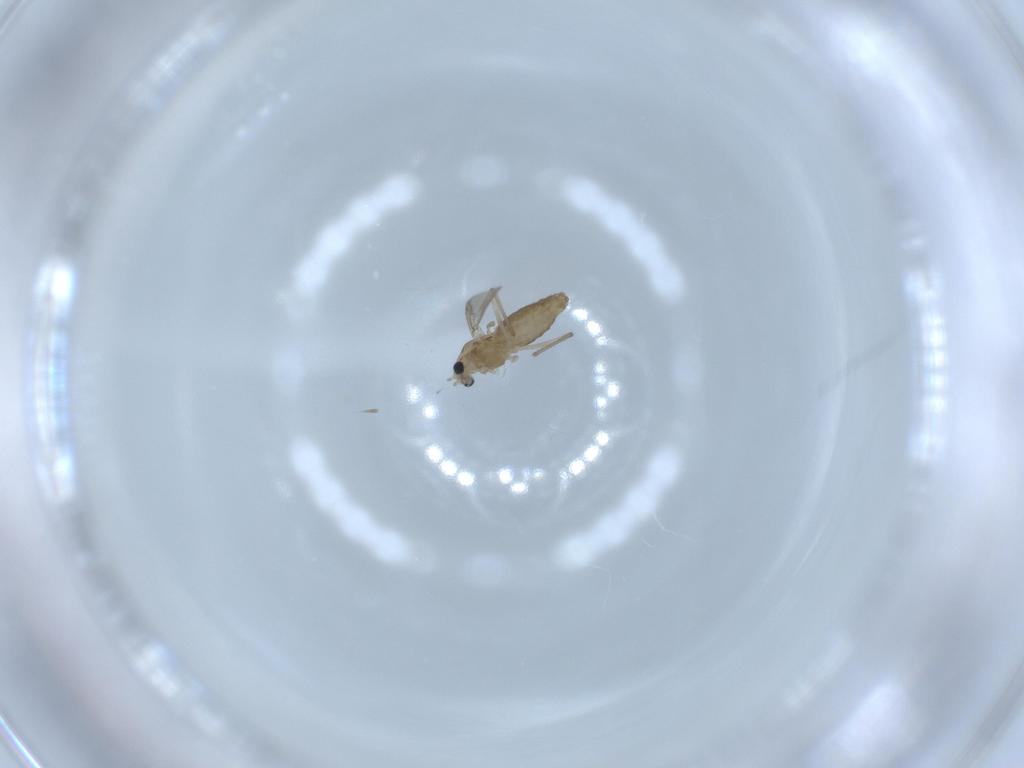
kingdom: Animalia
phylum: Arthropoda
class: Insecta
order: Diptera
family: Chironomidae
